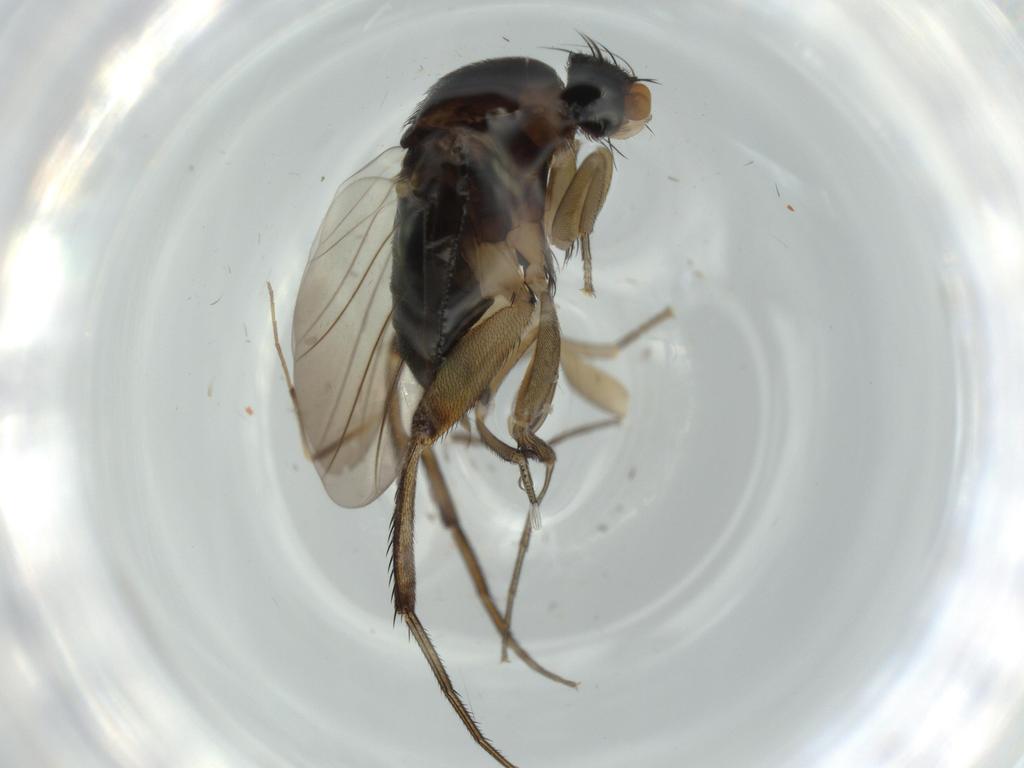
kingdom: Animalia
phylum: Arthropoda
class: Insecta
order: Diptera
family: Phoridae
